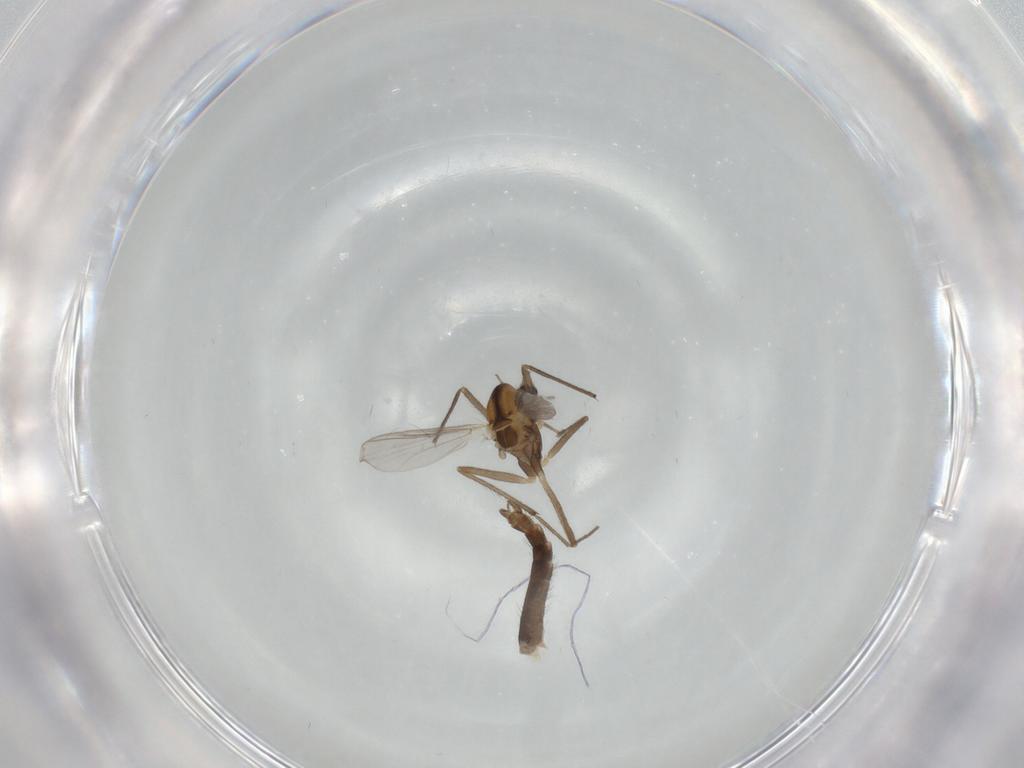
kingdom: Animalia
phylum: Arthropoda
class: Insecta
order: Diptera
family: Chironomidae
